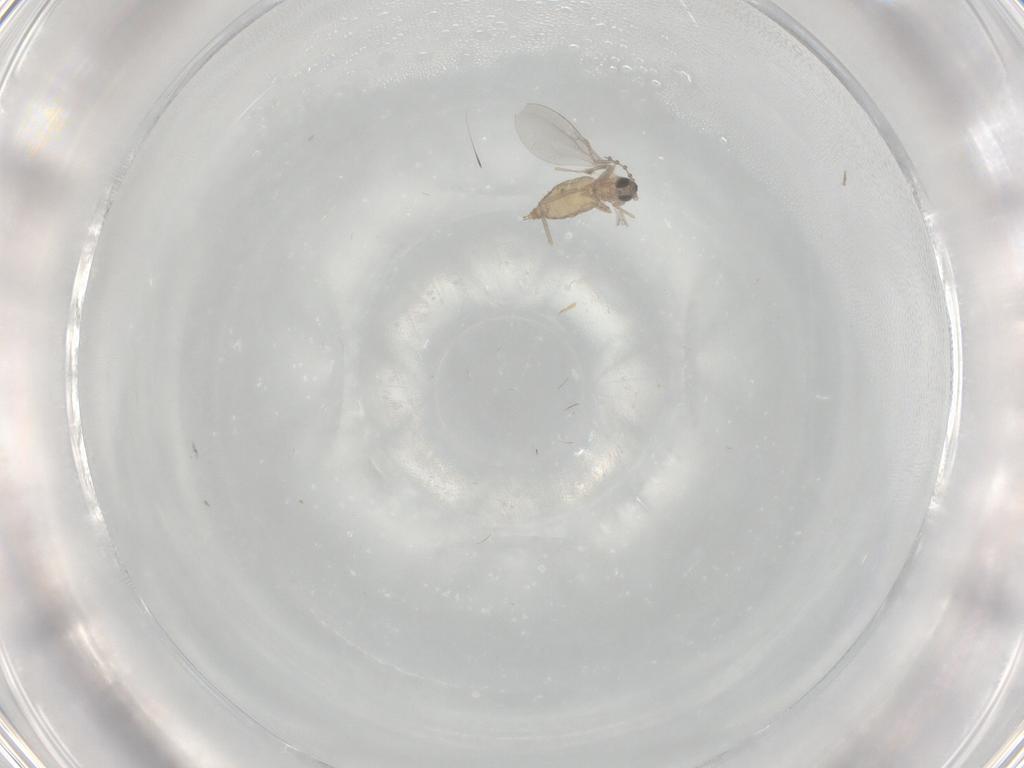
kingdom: Animalia
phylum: Arthropoda
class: Insecta
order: Diptera
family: Cecidomyiidae
